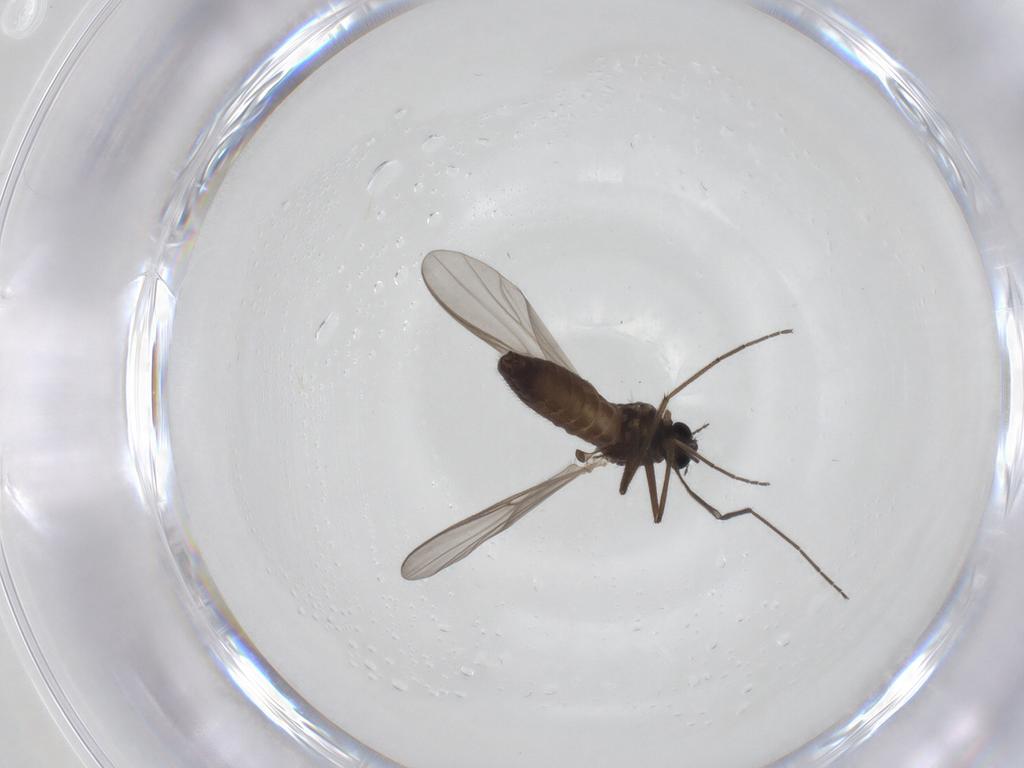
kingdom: Animalia
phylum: Arthropoda
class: Insecta
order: Diptera
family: Chironomidae
